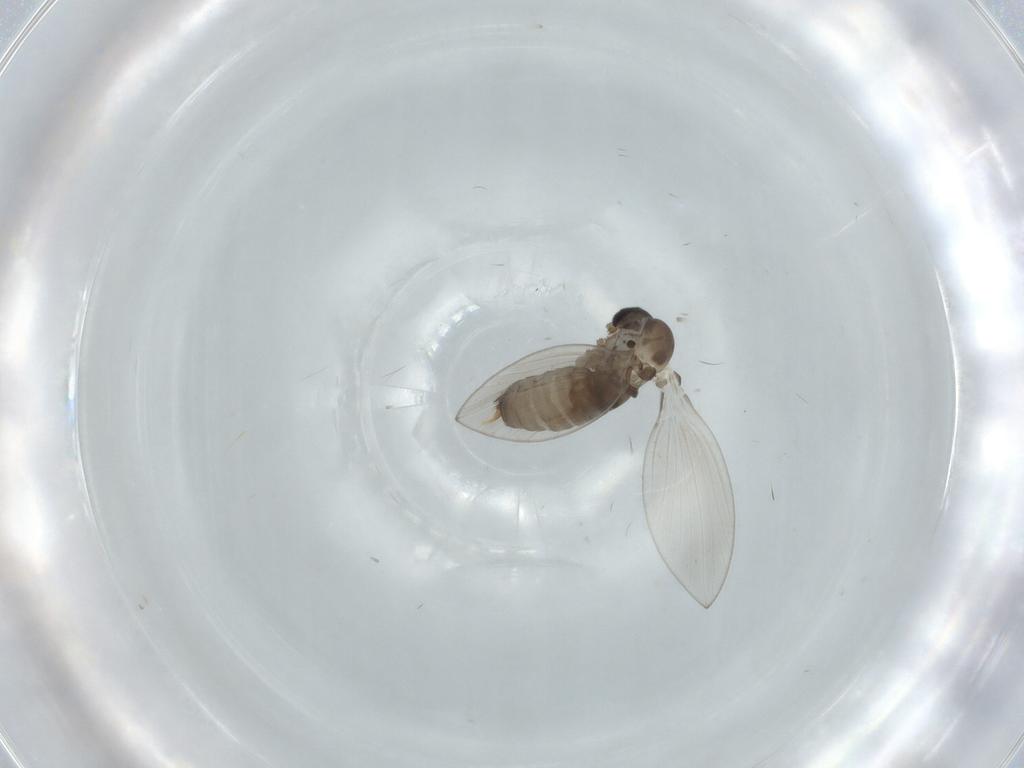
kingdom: Animalia
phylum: Arthropoda
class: Insecta
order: Diptera
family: Psychodidae
